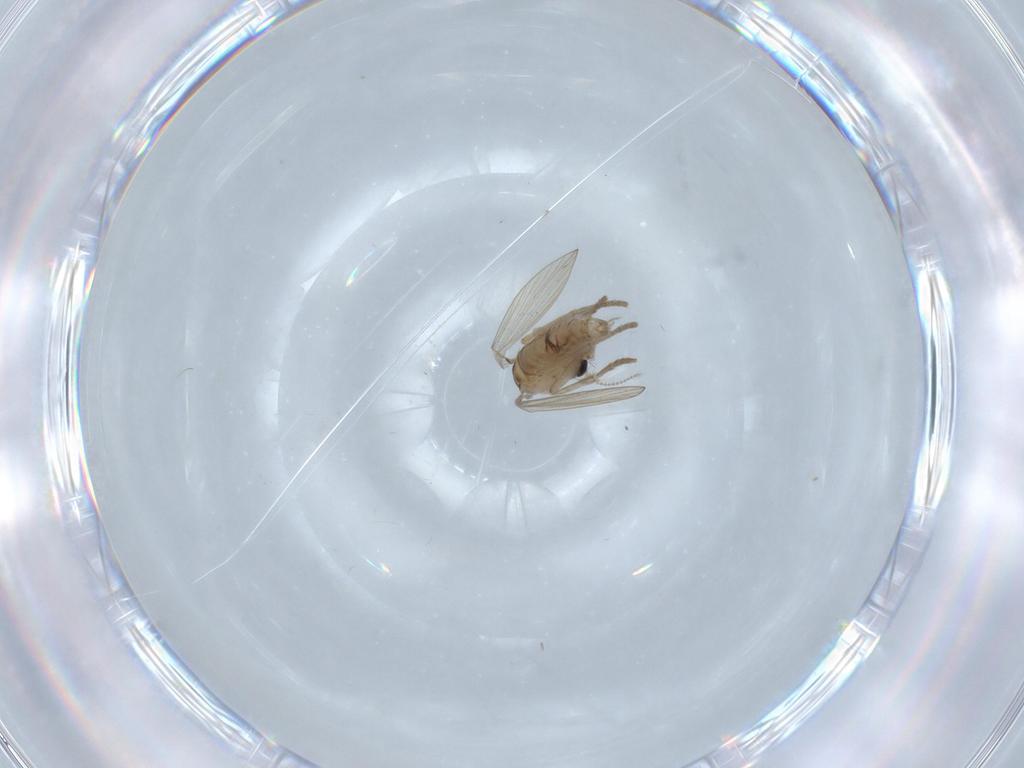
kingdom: Animalia
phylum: Arthropoda
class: Insecta
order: Diptera
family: Psychodidae
